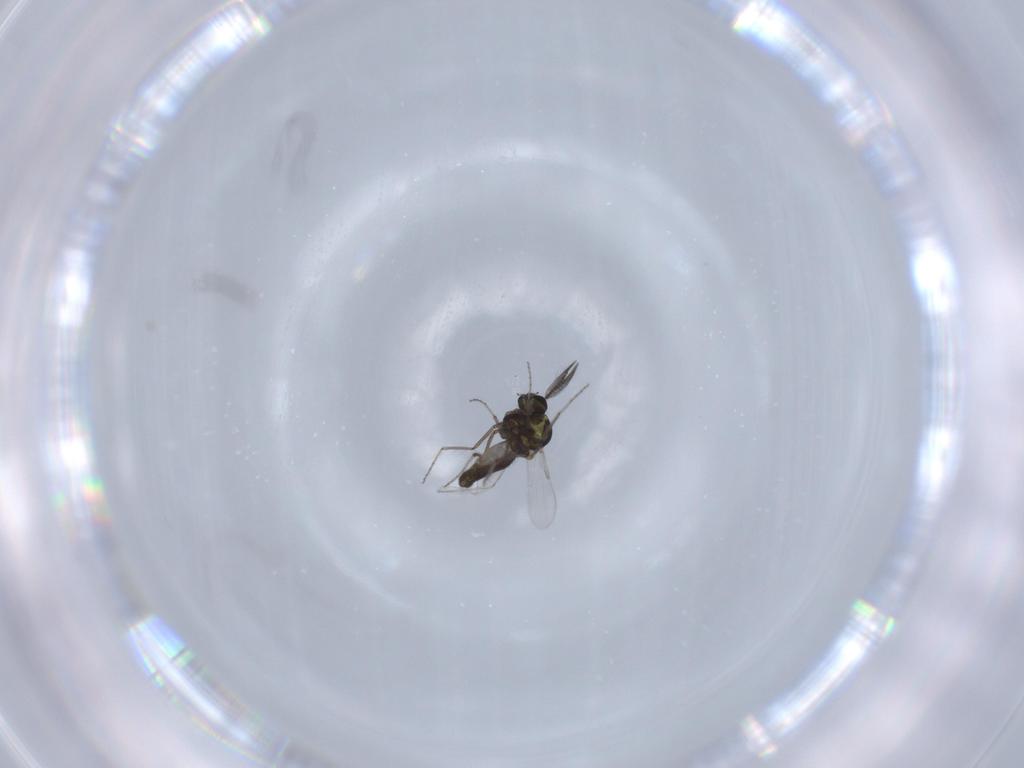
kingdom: Animalia
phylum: Arthropoda
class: Insecta
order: Diptera
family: Ceratopogonidae
